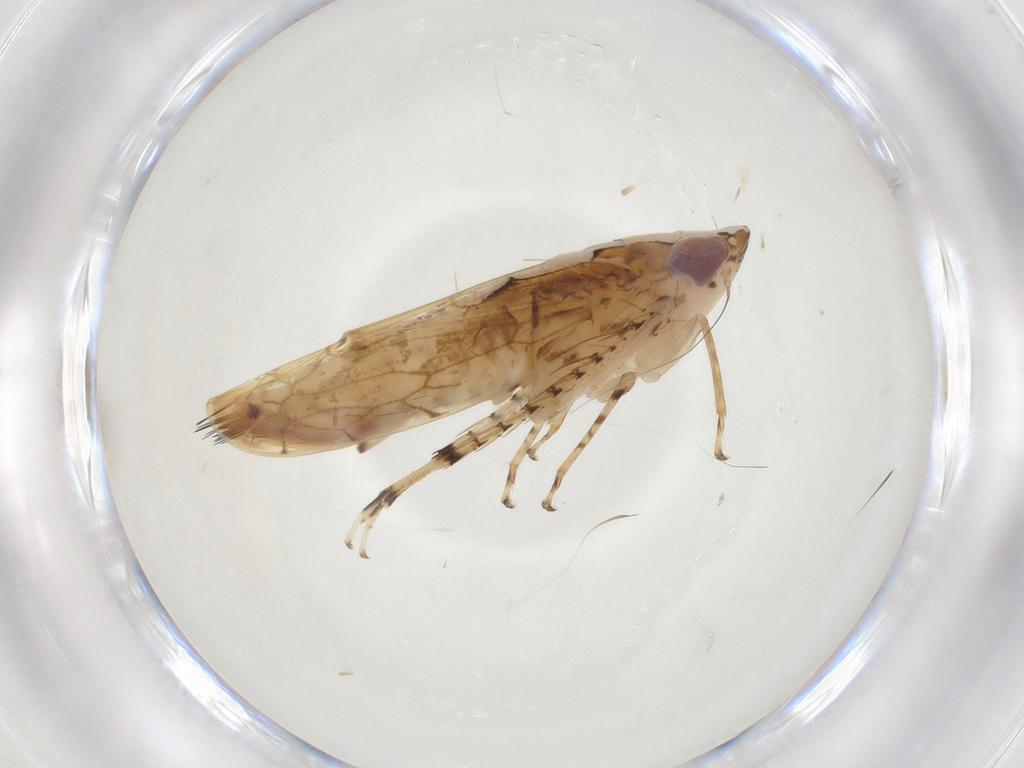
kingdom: Animalia
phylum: Arthropoda
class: Insecta
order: Hemiptera
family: Cicadellidae
